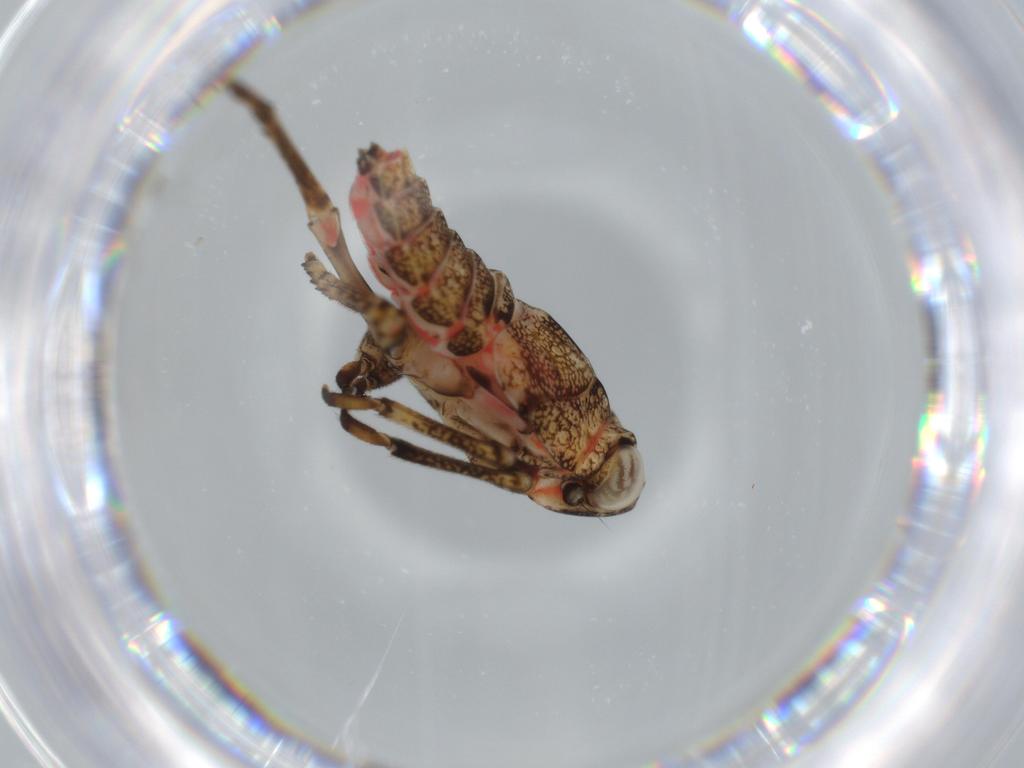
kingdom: Animalia
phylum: Arthropoda
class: Insecta
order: Hemiptera
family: Issidae
